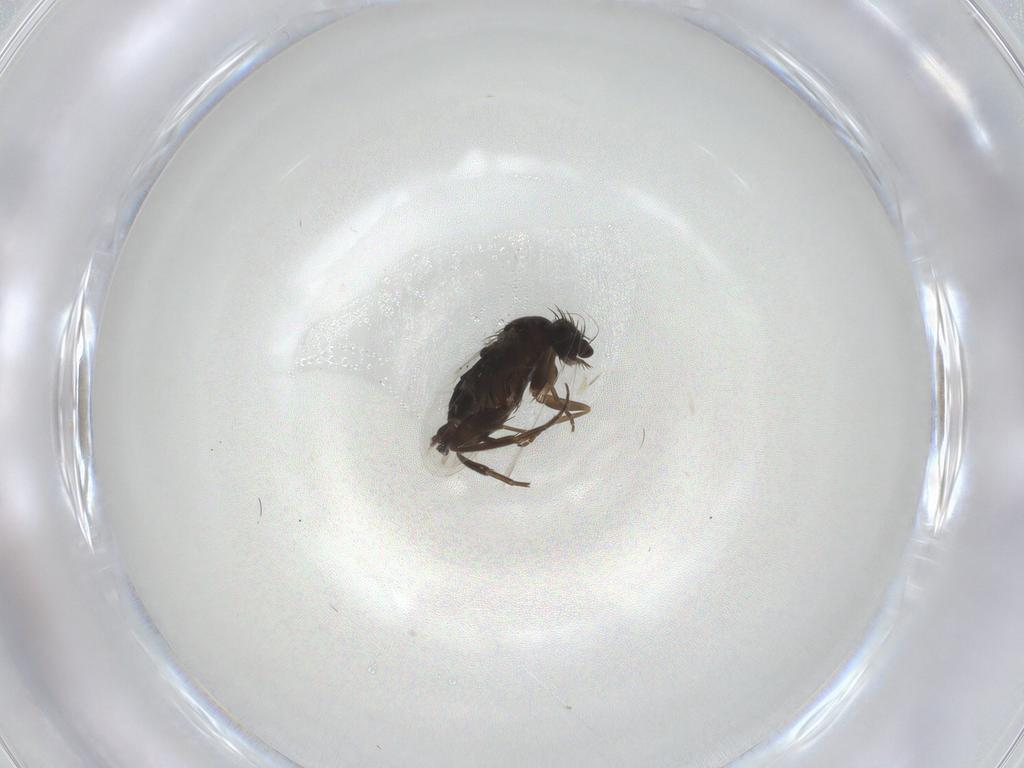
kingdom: Animalia
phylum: Arthropoda
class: Insecta
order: Diptera
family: Phoridae
